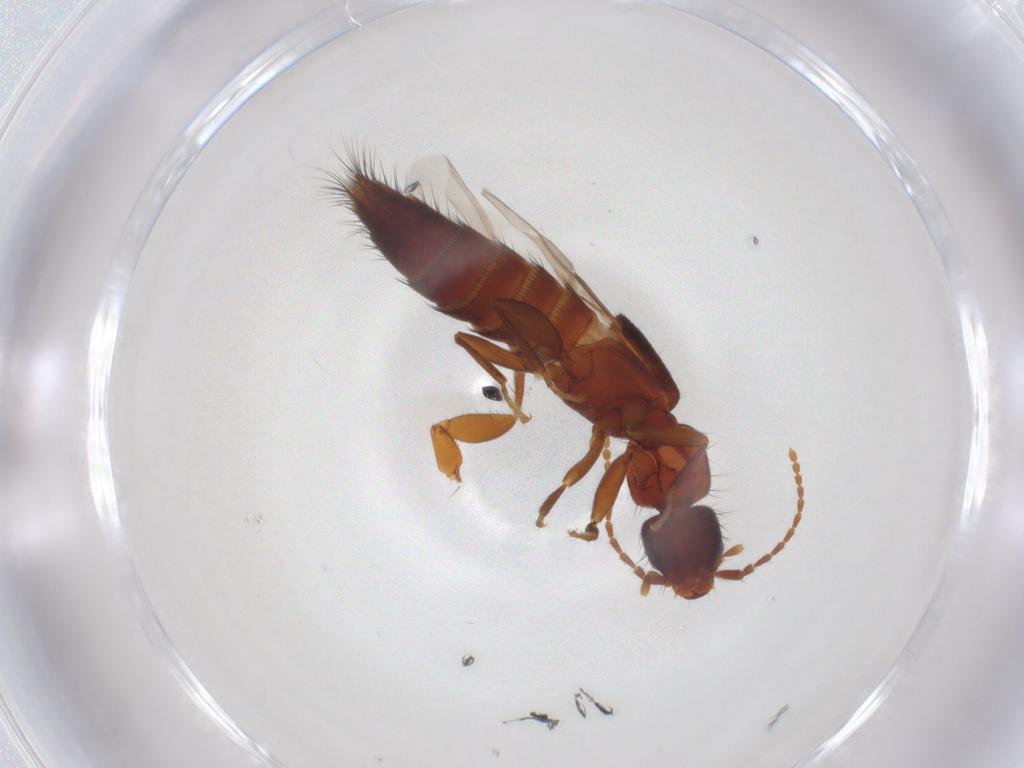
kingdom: Animalia
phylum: Arthropoda
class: Insecta
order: Coleoptera
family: Staphylinidae
